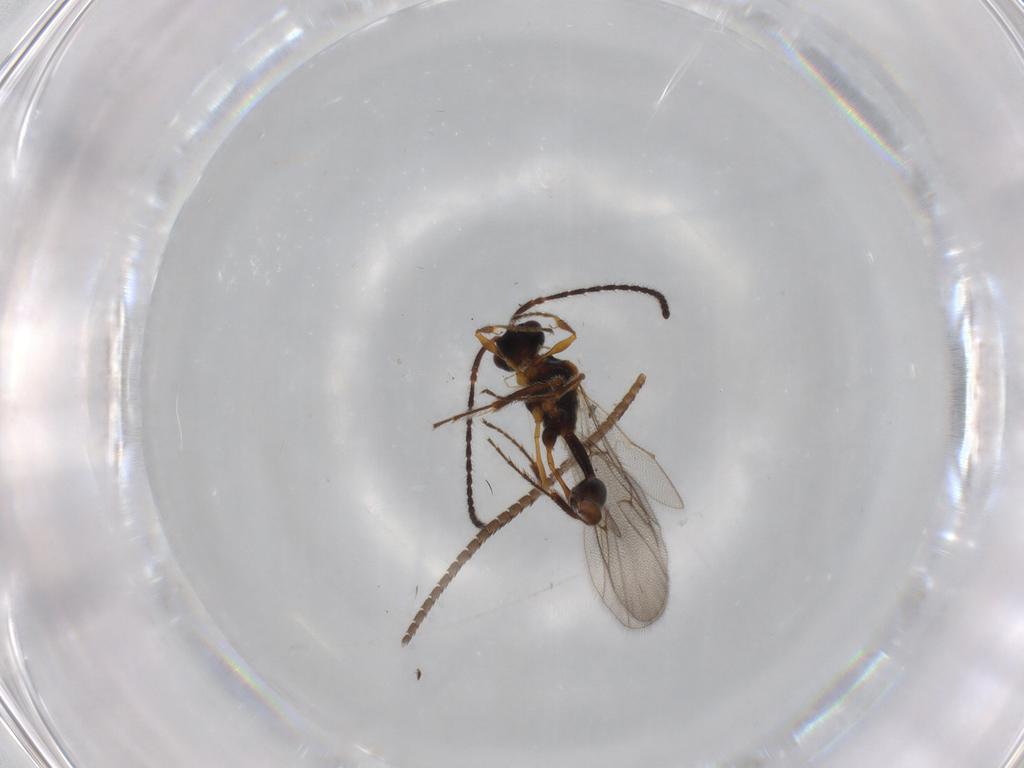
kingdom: Animalia
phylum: Arthropoda
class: Insecta
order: Hymenoptera
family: Diapriidae
